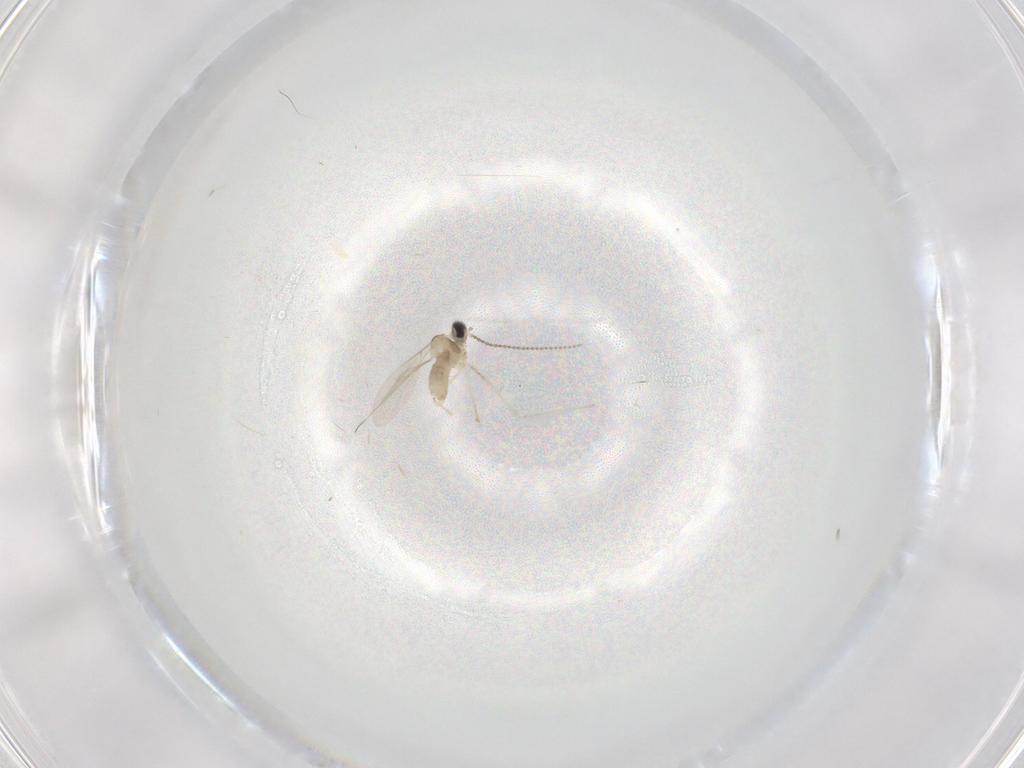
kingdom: Animalia
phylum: Arthropoda
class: Insecta
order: Diptera
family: Cecidomyiidae
